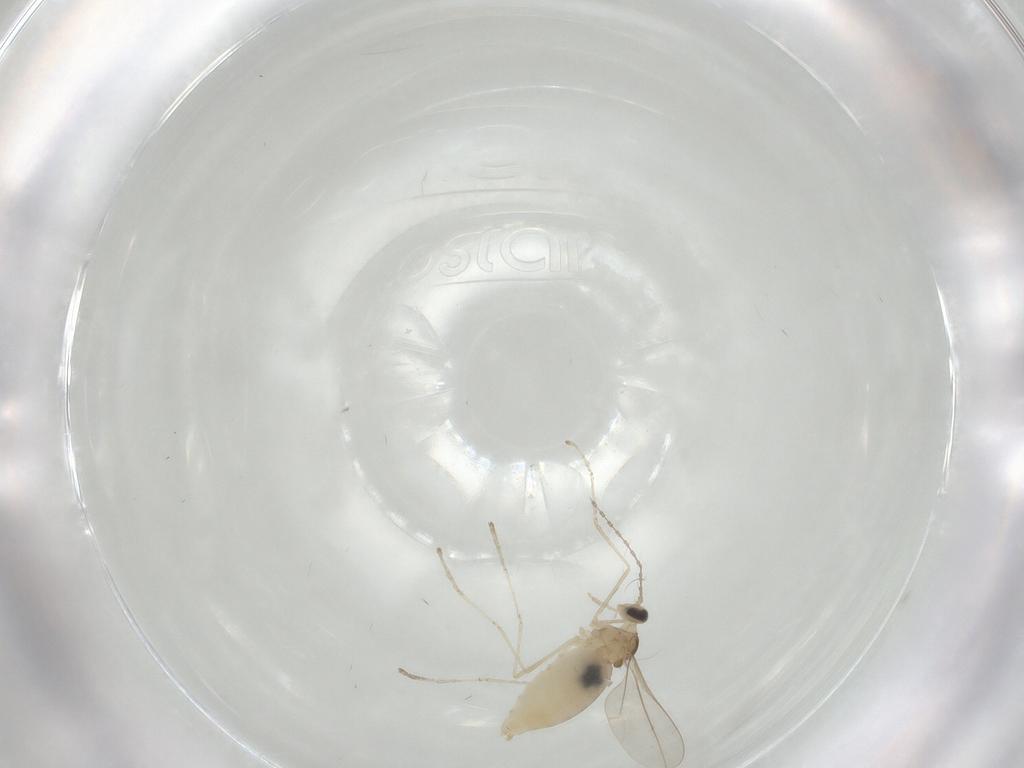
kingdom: Animalia
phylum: Arthropoda
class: Insecta
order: Diptera
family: Cecidomyiidae
